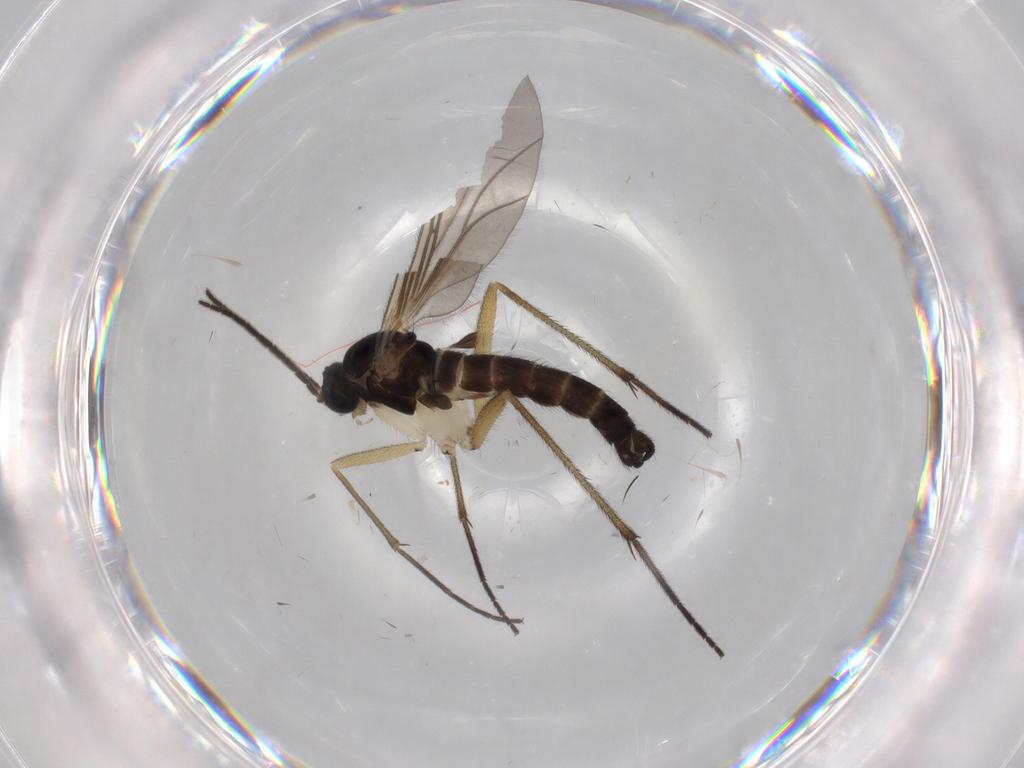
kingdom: Animalia
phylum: Arthropoda
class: Insecta
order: Diptera
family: Sciaridae
